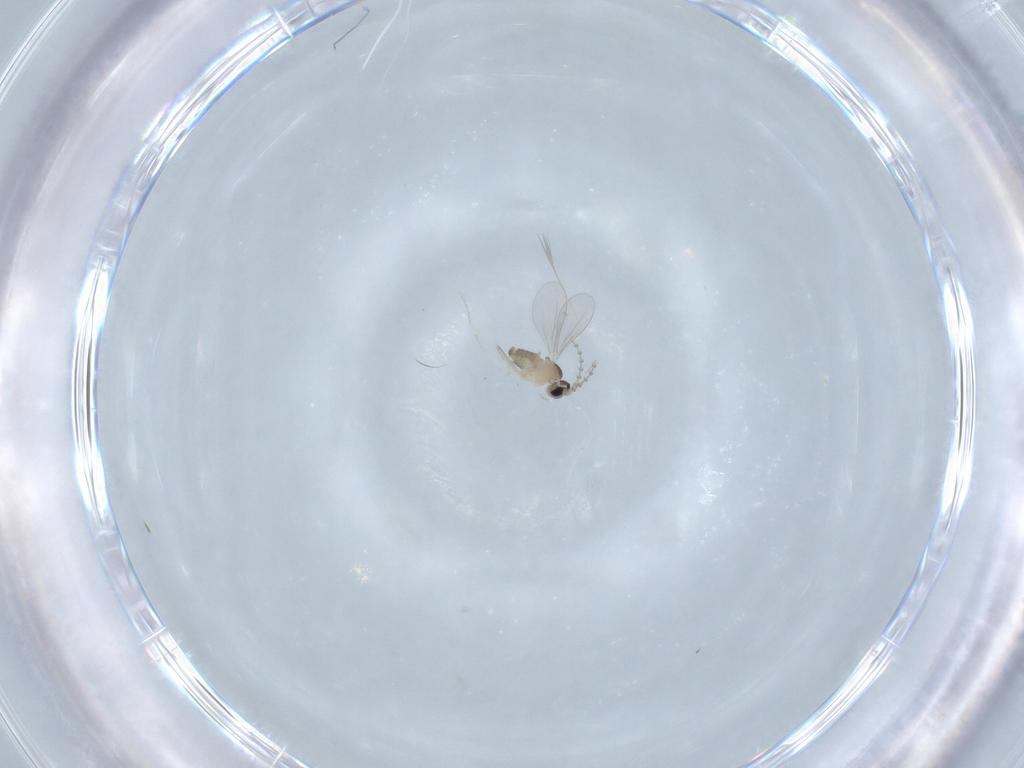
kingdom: Animalia
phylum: Arthropoda
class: Insecta
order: Diptera
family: Cecidomyiidae
